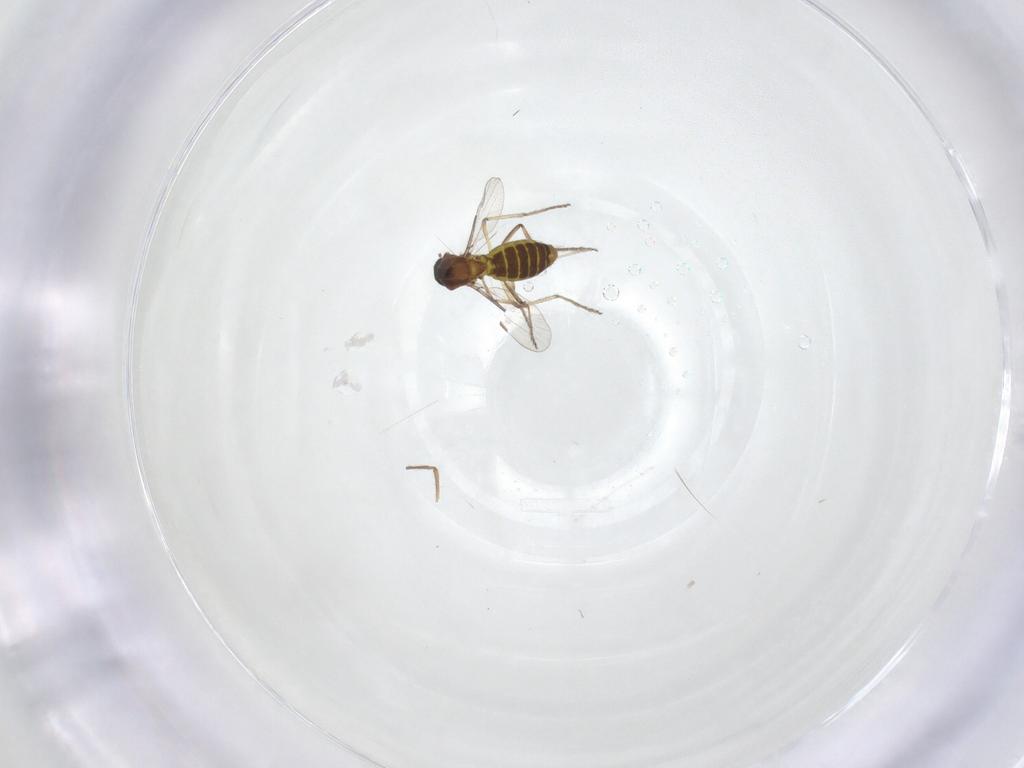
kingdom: Animalia
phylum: Arthropoda
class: Insecta
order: Diptera
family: Ceratopogonidae
